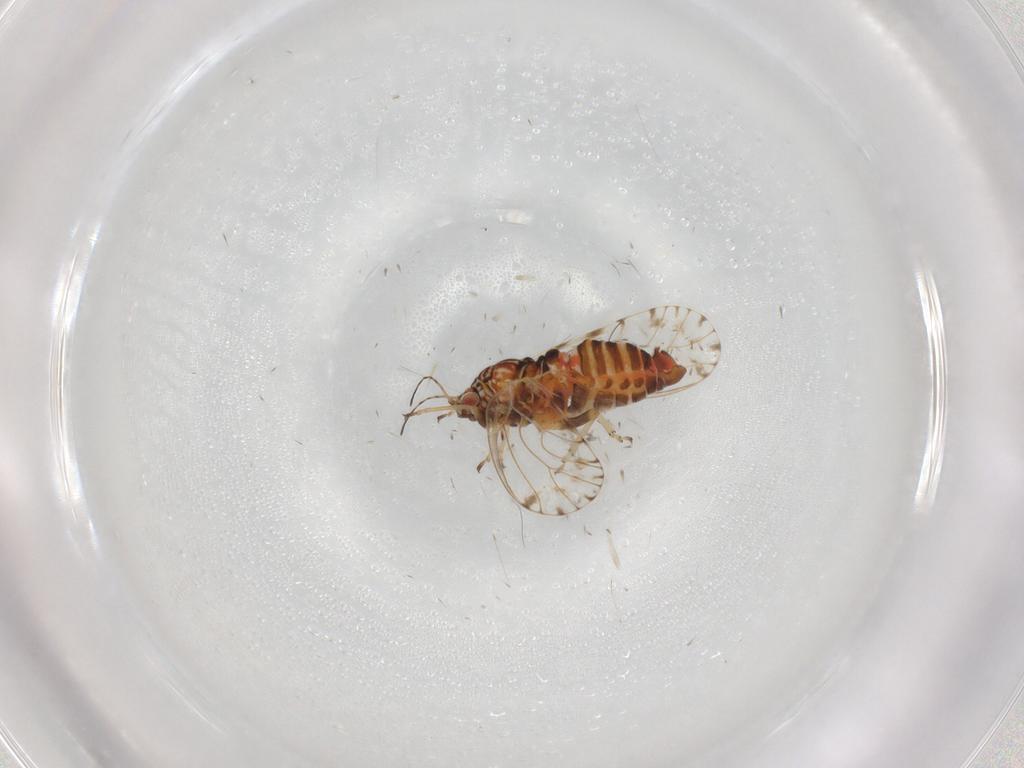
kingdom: Animalia
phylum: Arthropoda
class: Insecta
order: Hemiptera
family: Psyllidae
